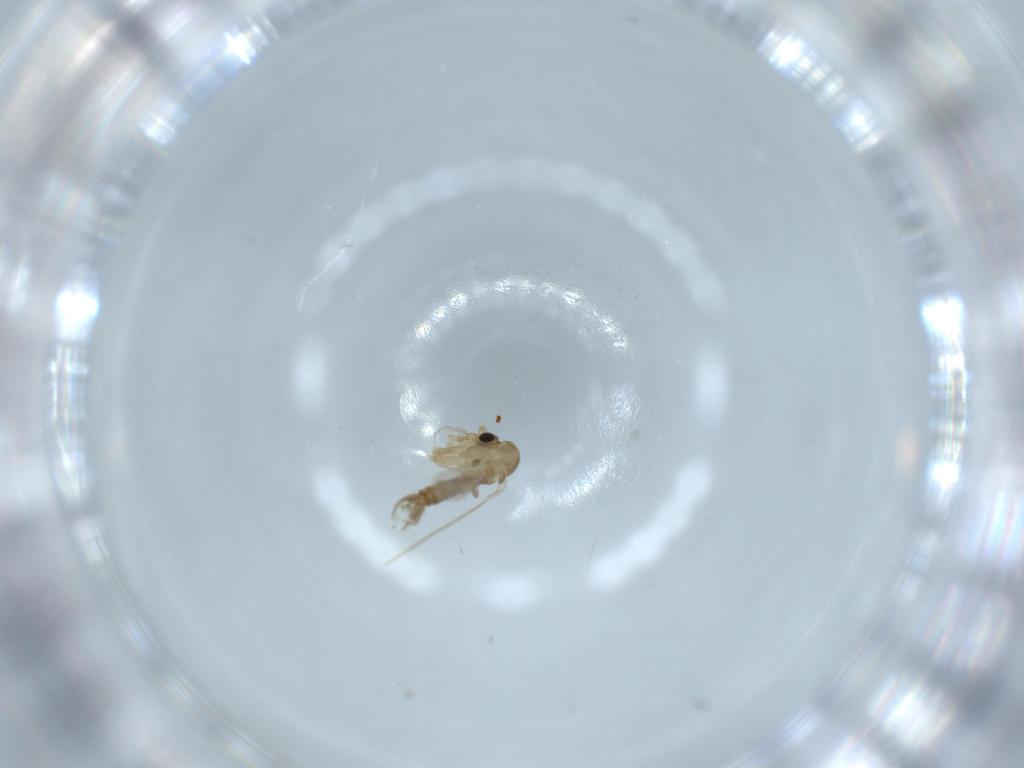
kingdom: Animalia
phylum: Arthropoda
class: Insecta
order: Diptera
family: Psychodidae
